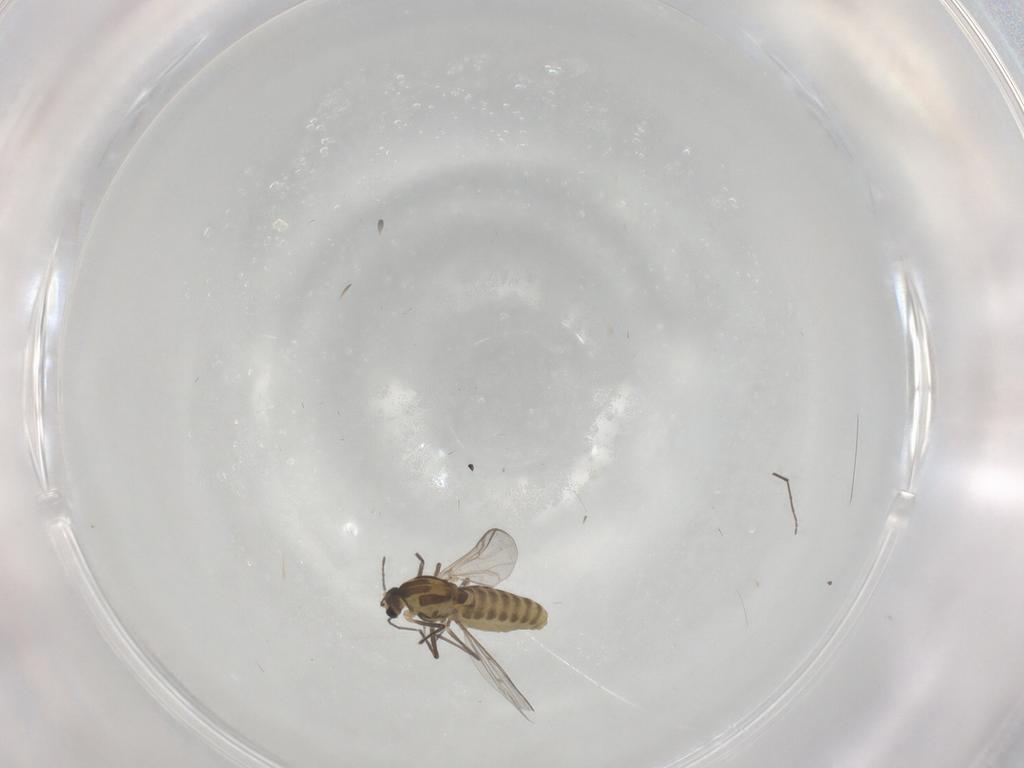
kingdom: Animalia
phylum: Arthropoda
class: Insecta
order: Diptera
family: Chironomidae
